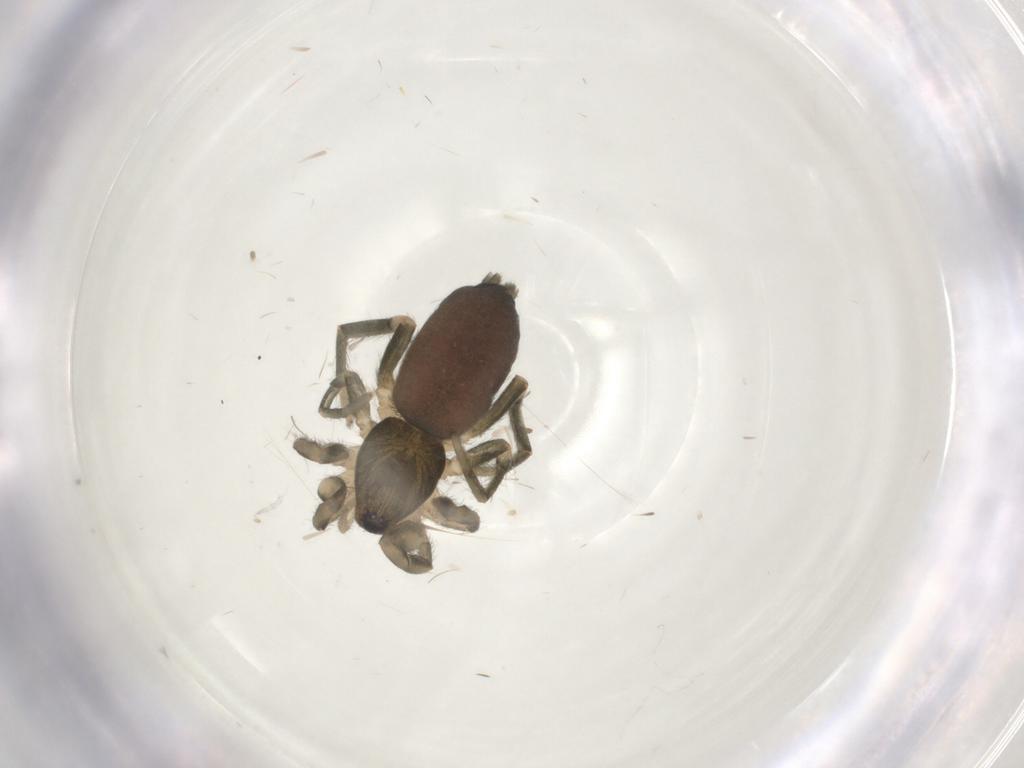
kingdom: Animalia
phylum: Arthropoda
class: Arachnida
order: Araneae
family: Gnaphosidae
